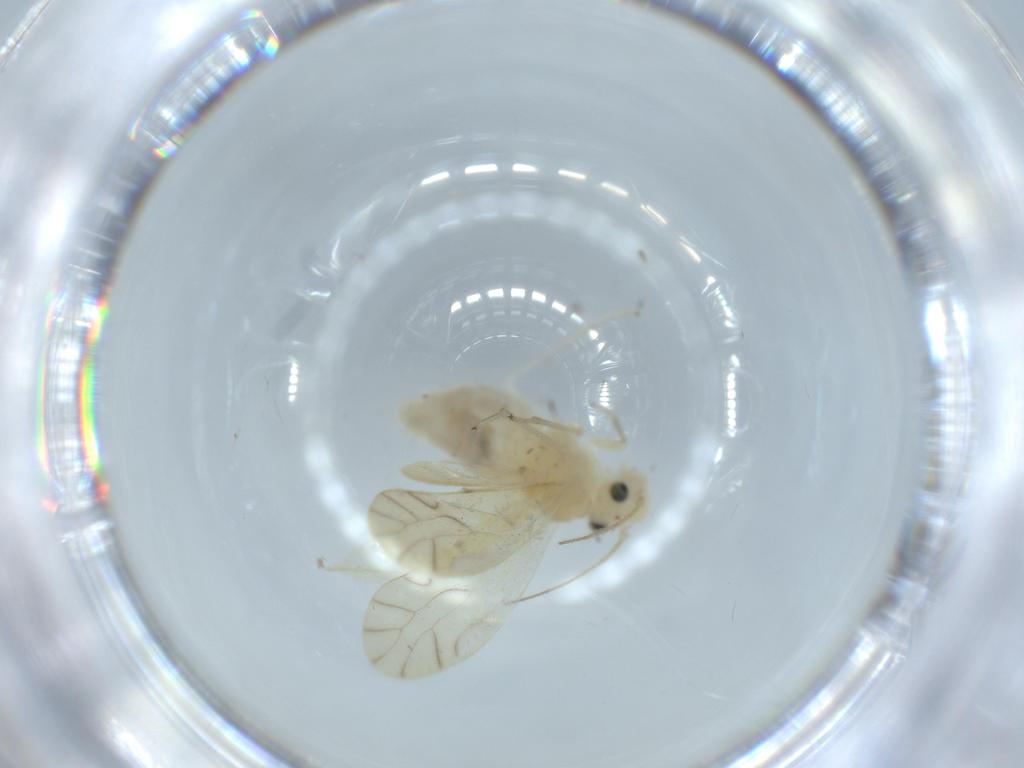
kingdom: Animalia
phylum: Arthropoda
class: Insecta
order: Psocodea
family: Caeciliusidae
